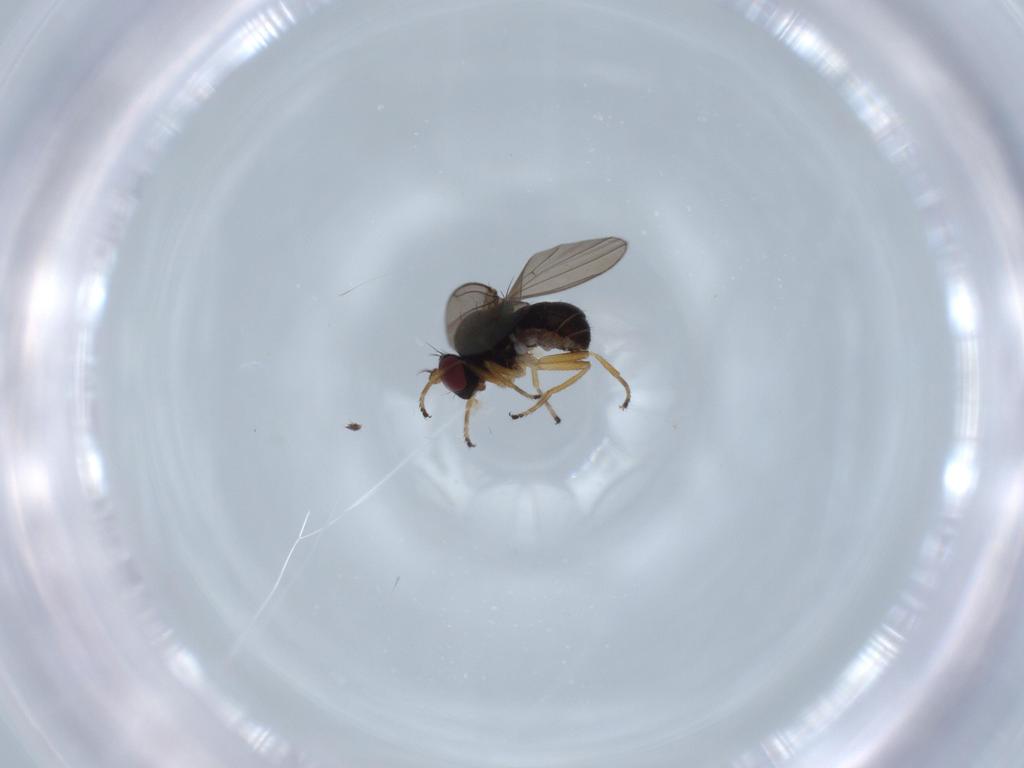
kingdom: Animalia
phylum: Arthropoda
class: Insecta
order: Diptera
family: Ephydridae
